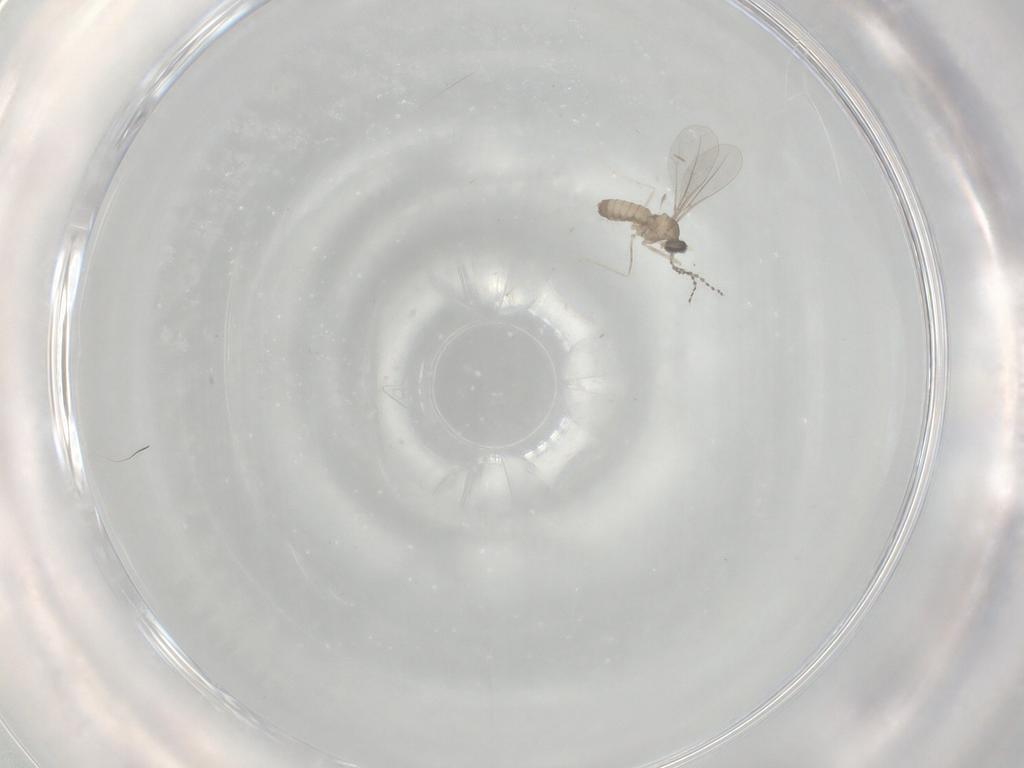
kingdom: Animalia
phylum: Arthropoda
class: Insecta
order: Diptera
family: Cecidomyiidae
